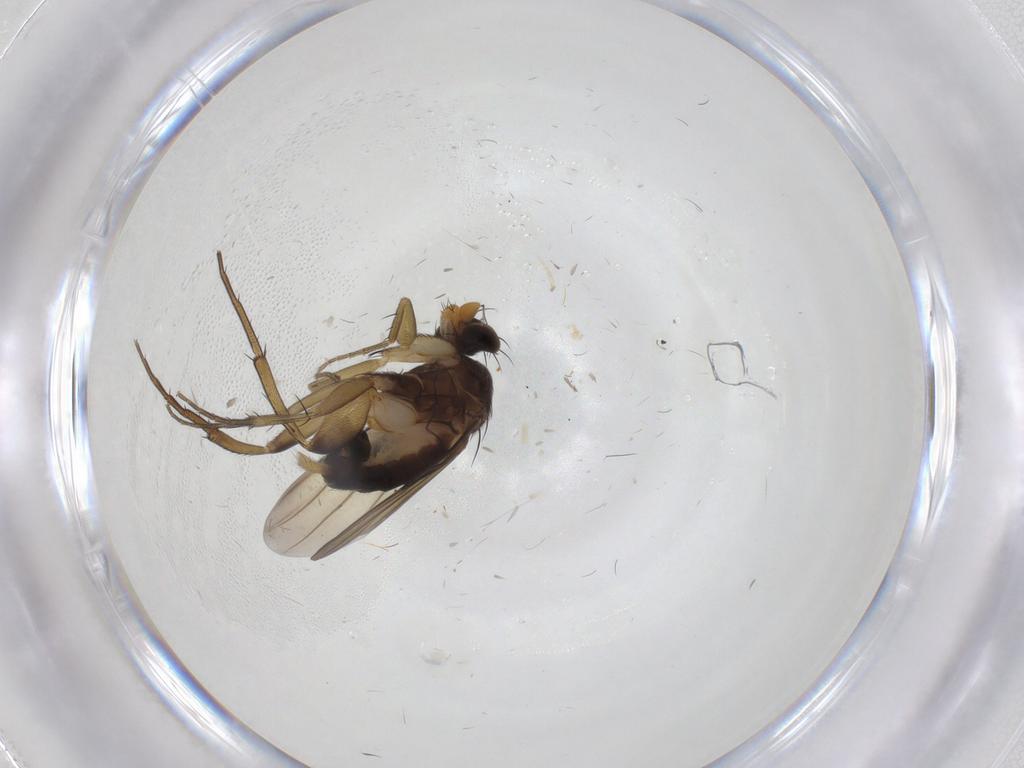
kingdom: Animalia
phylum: Arthropoda
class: Insecta
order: Diptera
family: Phoridae
